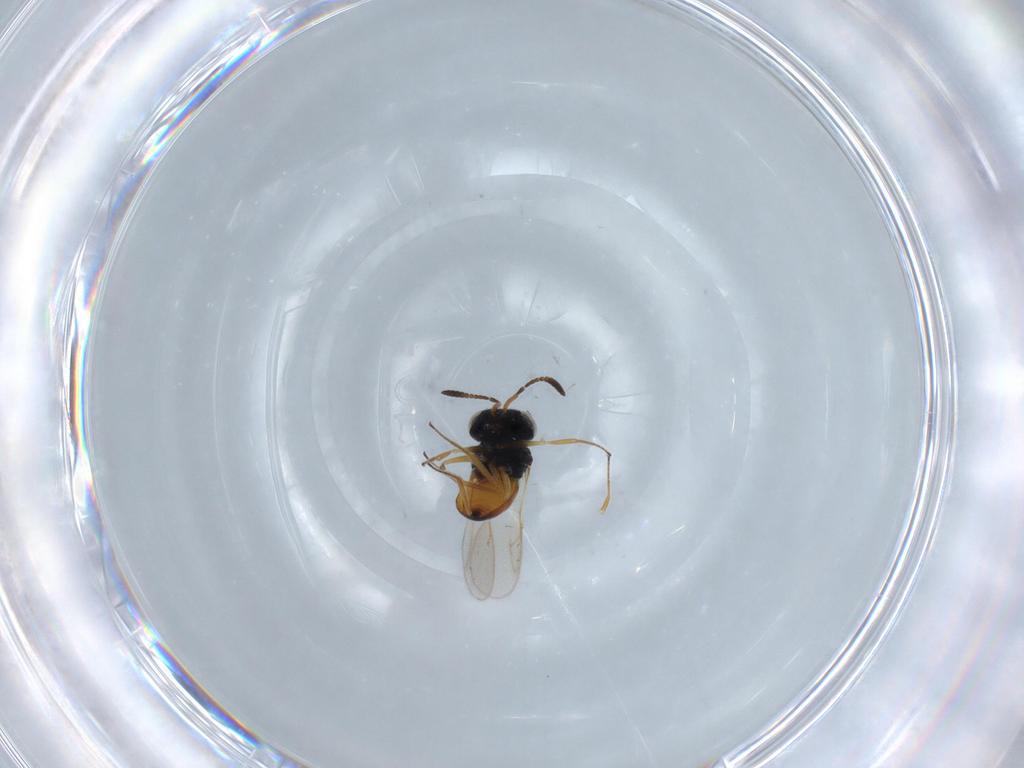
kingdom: Animalia
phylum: Arthropoda
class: Insecta
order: Hymenoptera
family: Scelionidae
